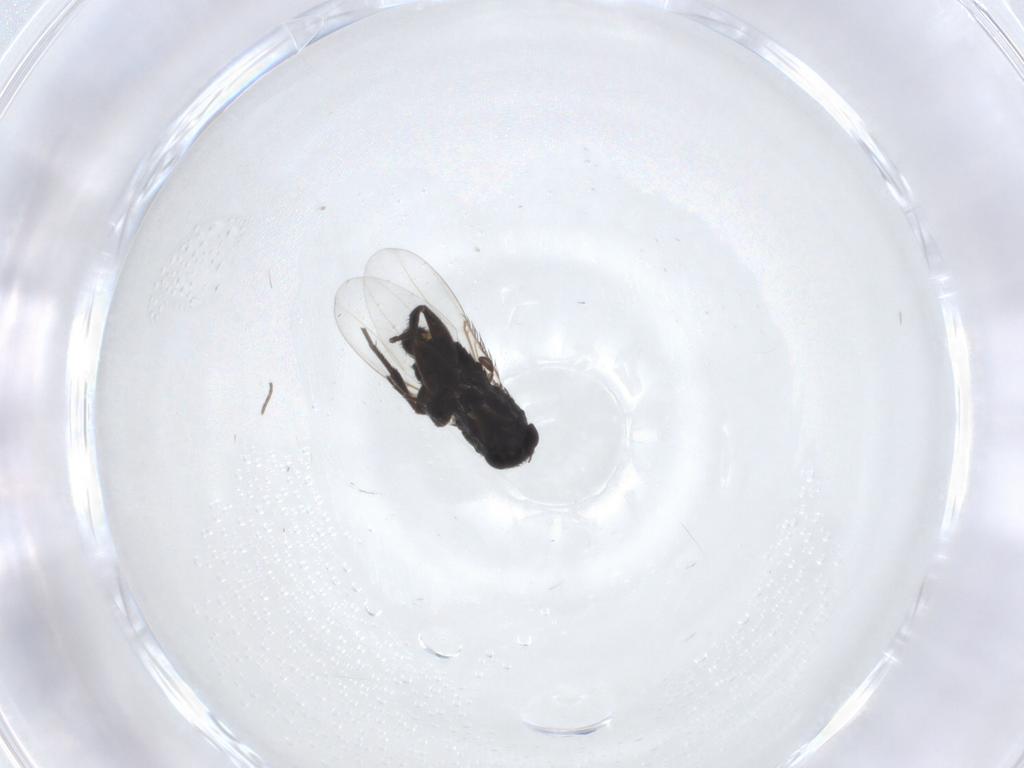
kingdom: Animalia
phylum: Arthropoda
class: Insecta
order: Diptera
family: Phoridae
